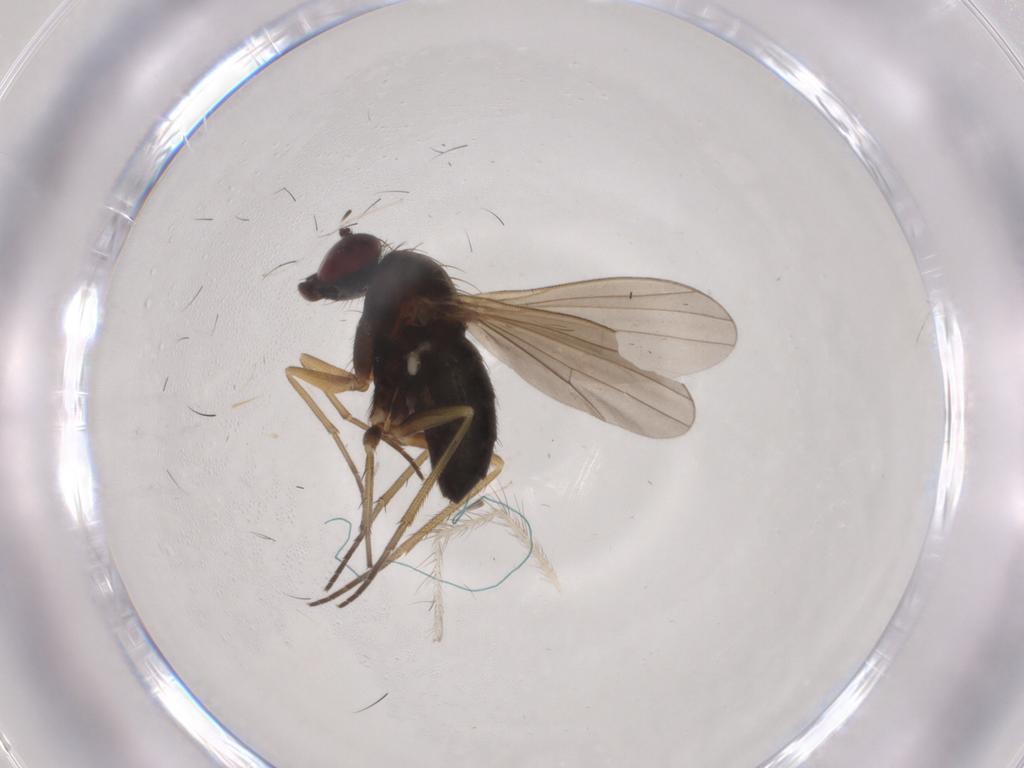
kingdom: Animalia
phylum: Arthropoda
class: Insecta
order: Diptera
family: Dolichopodidae
